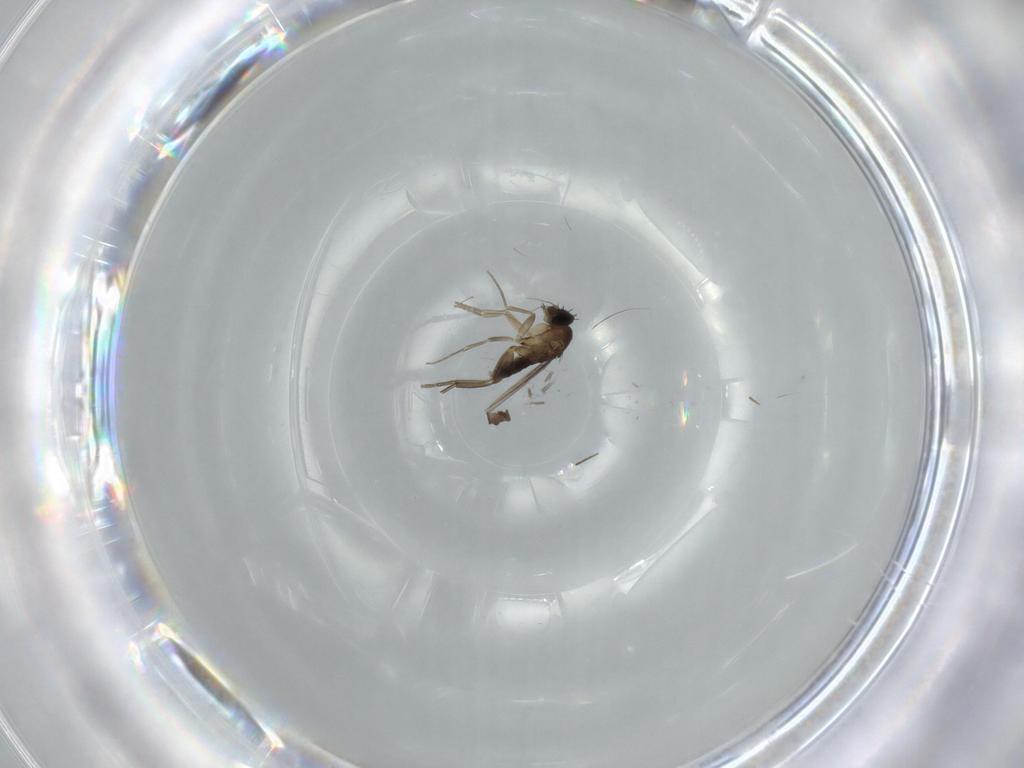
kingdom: Animalia
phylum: Arthropoda
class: Insecta
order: Diptera
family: Phoridae
